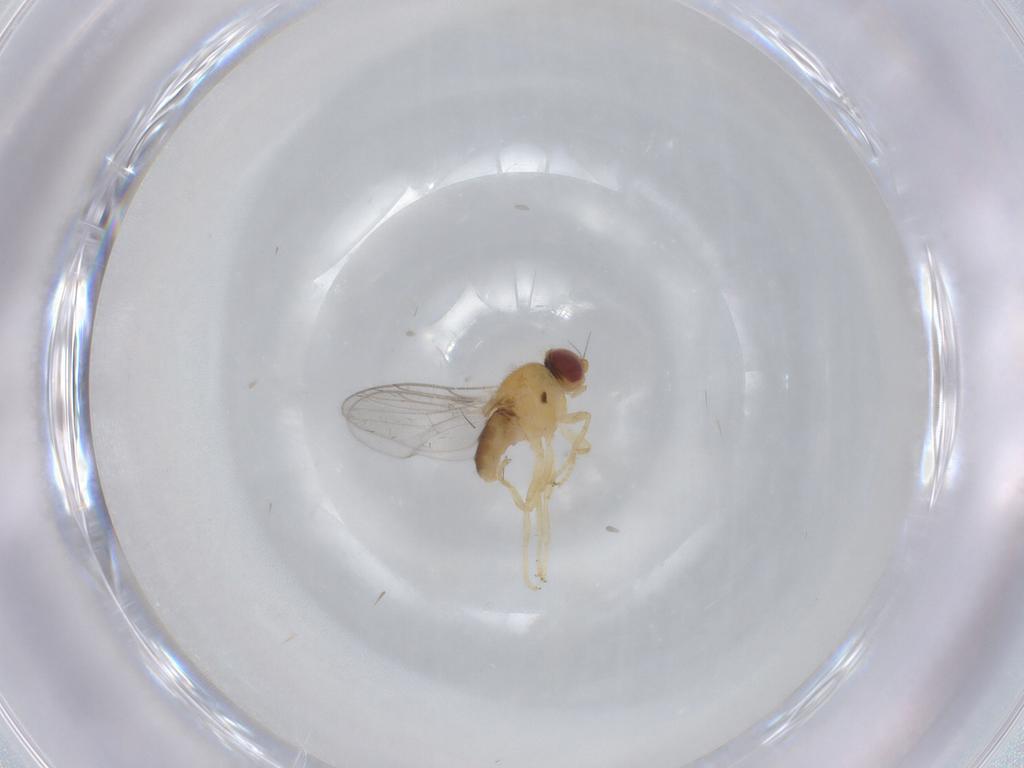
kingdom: Animalia
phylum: Arthropoda
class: Insecta
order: Diptera
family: Chloropidae
